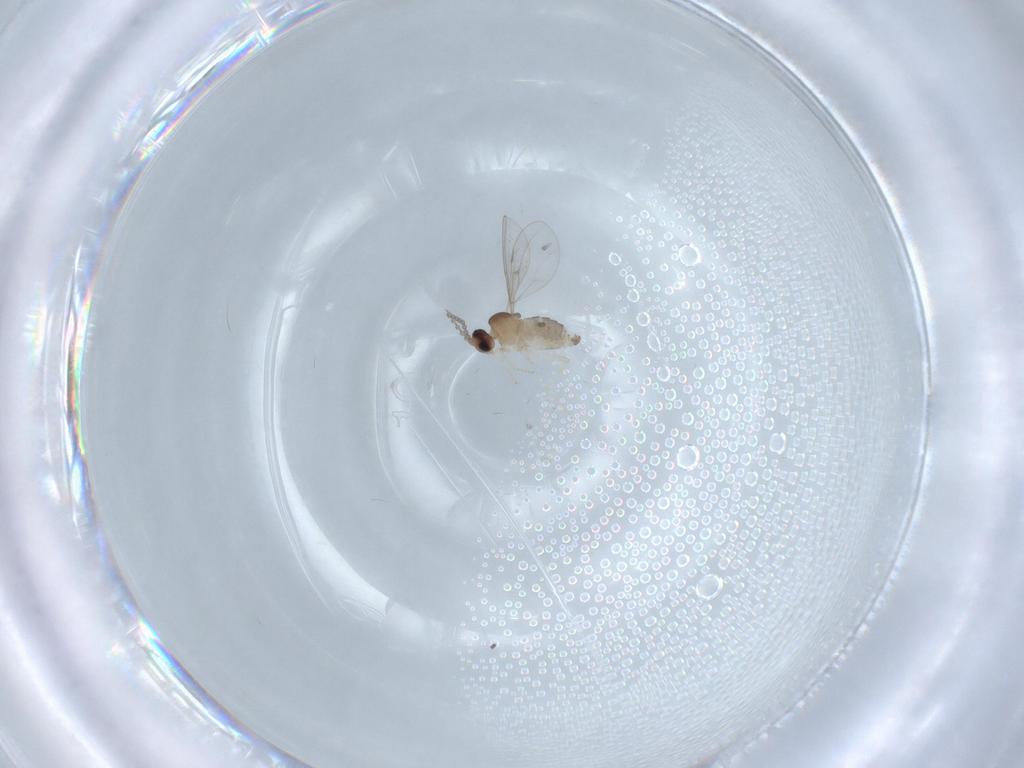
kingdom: Animalia
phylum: Arthropoda
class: Insecta
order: Diptera
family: Cecidomyiidae
